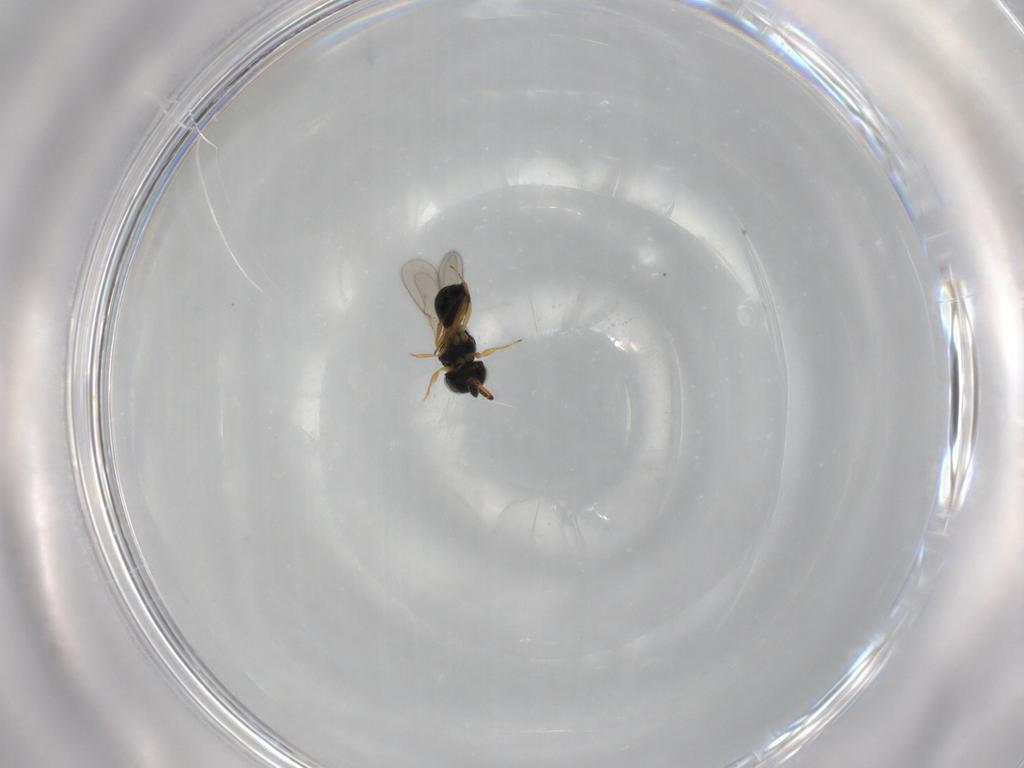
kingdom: Animalia
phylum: Arthropoda
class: Insecta
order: Hymenoptera
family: Scelionidae
